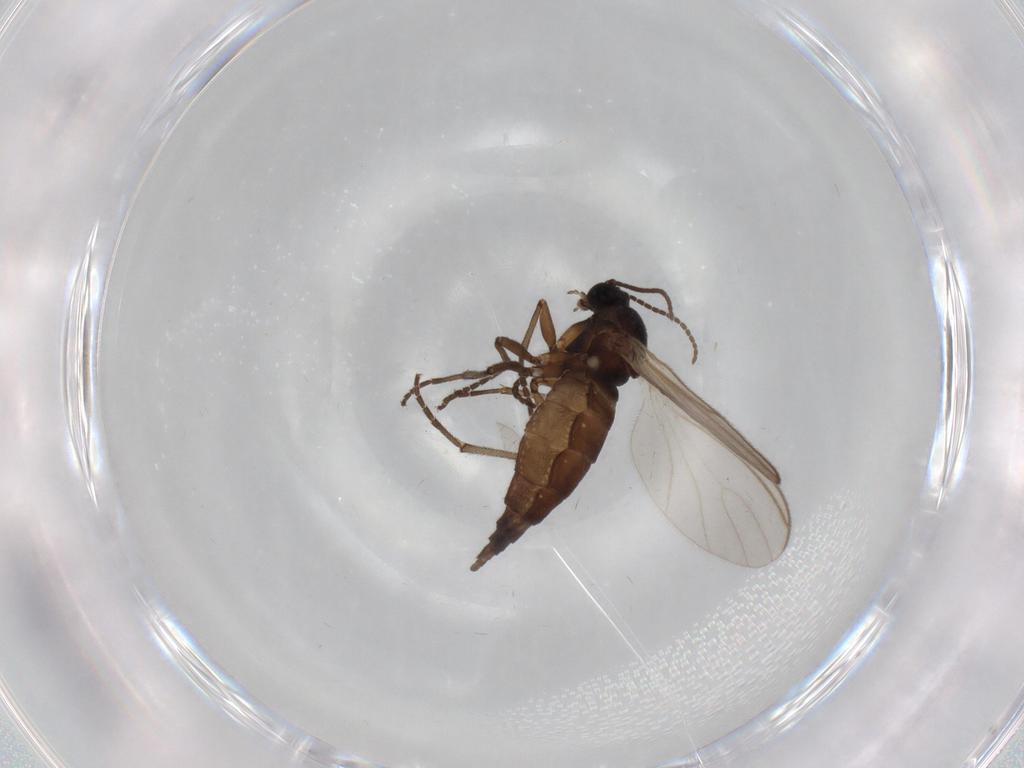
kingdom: Animalia
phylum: Arthropoda
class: Insecta
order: Diptera
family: Sciaridae
